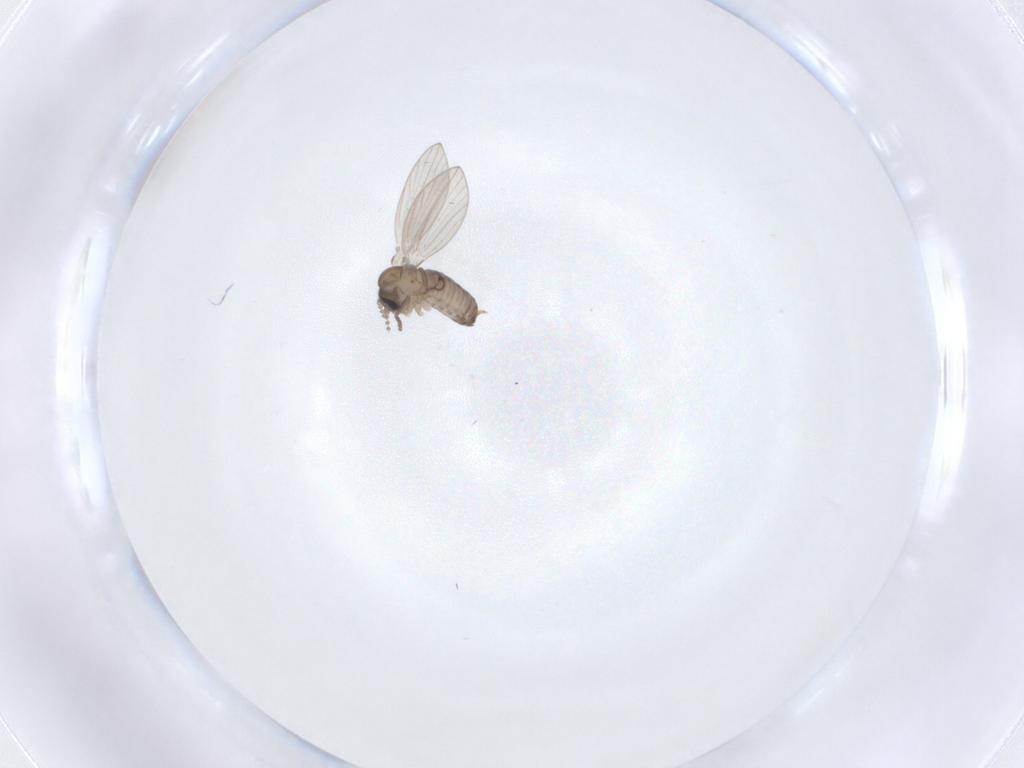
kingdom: Animalia
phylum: Arthropoda
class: Insecta
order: Diptera
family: Psychodidae
